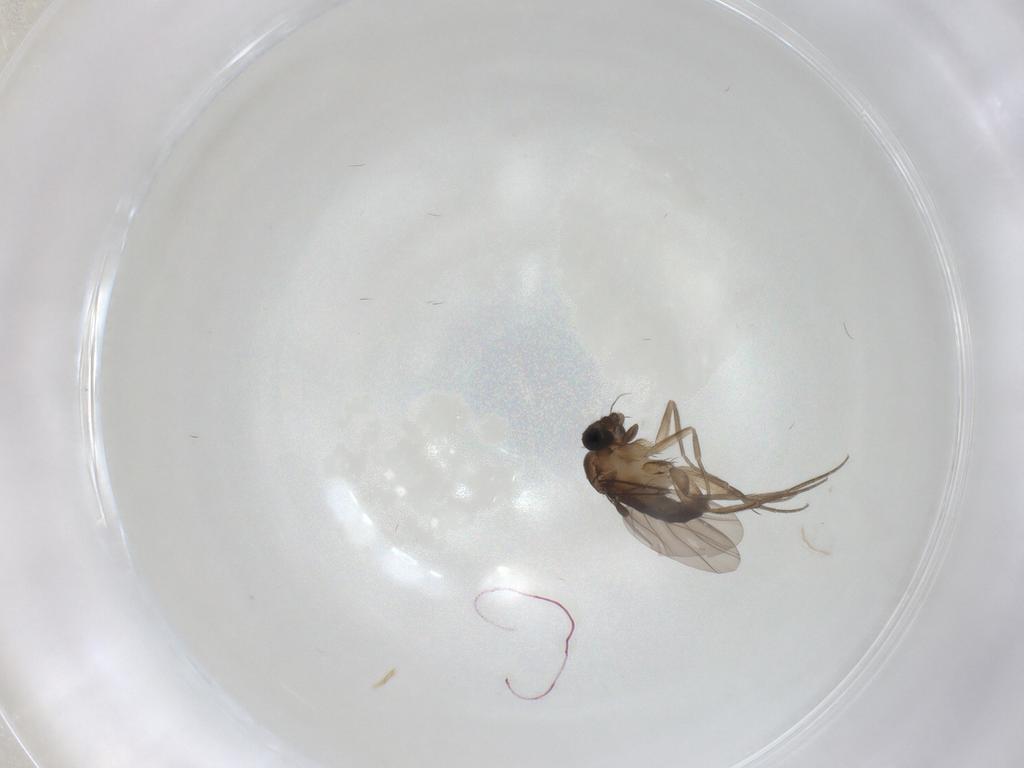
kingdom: Animalia
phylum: Arthropoda
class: Insecta
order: Diptera
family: Phoridae
